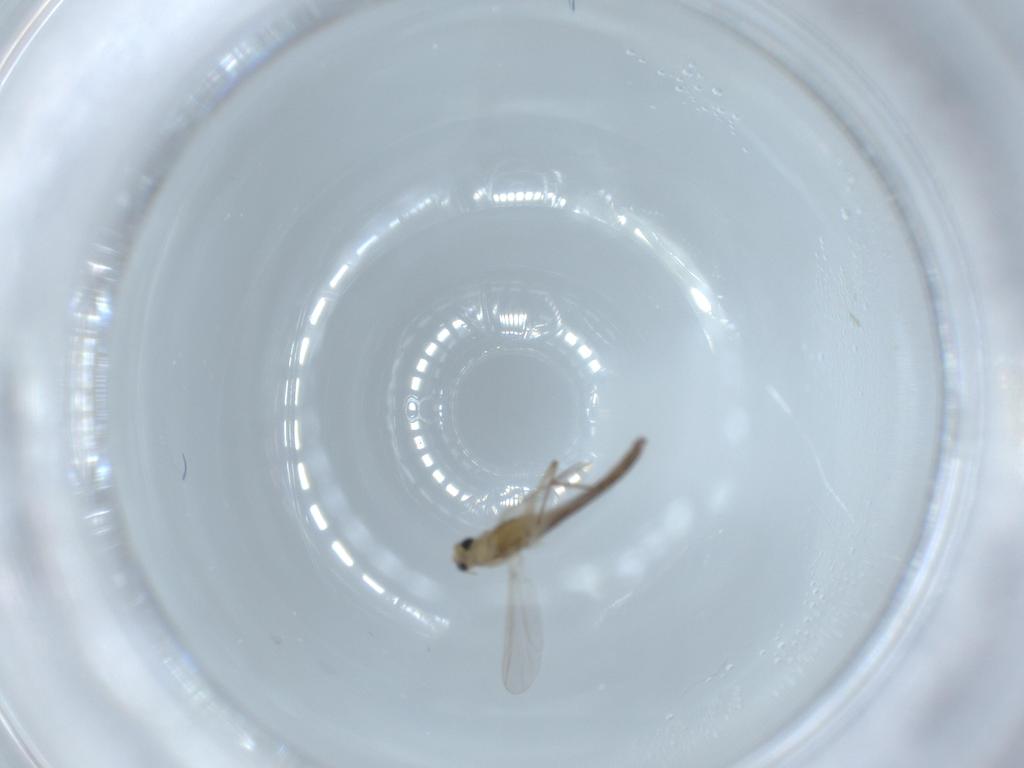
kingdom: Animalia
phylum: Arthropoda
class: Insecta
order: Diptera
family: Chironomidae
